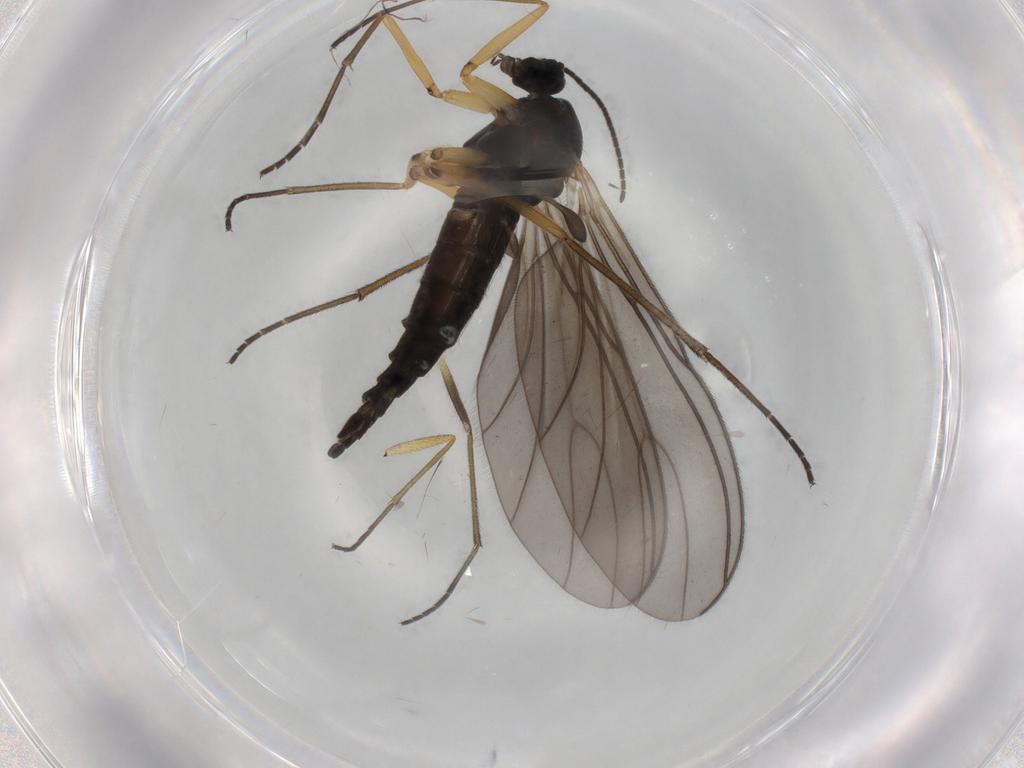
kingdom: Animalia
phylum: Arthropoda
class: Insecta
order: Diptera
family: Sciaridae
